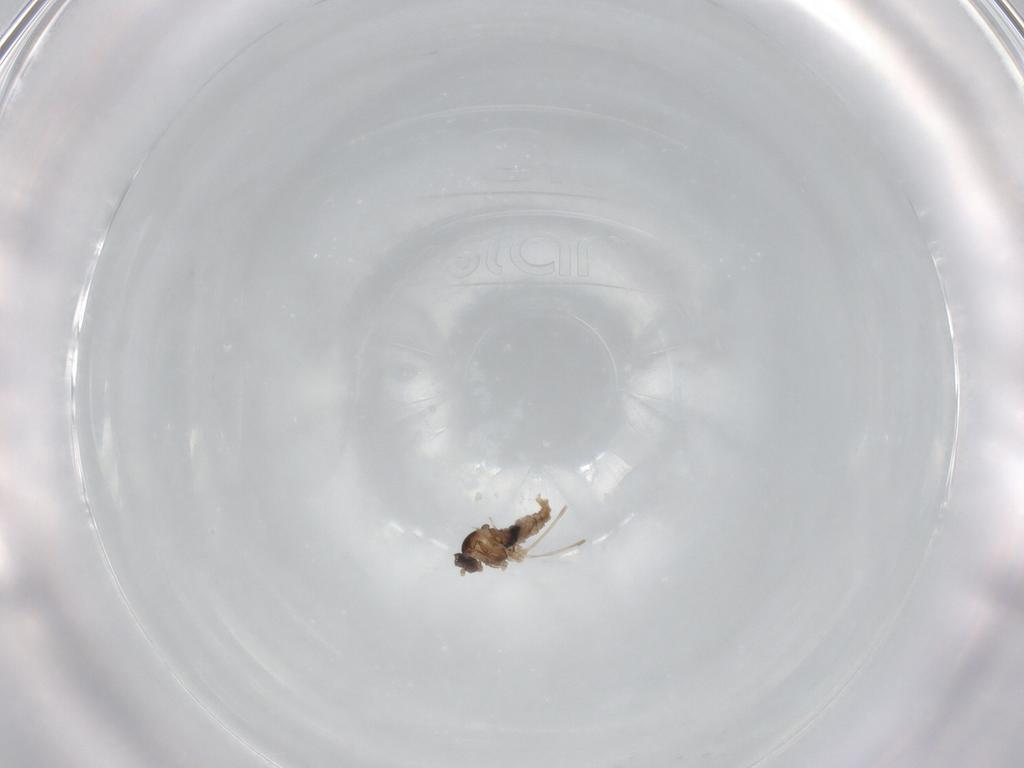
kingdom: Animalia
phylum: Arthropoda
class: Insecta
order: Diptera
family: Cecidomyiidae
